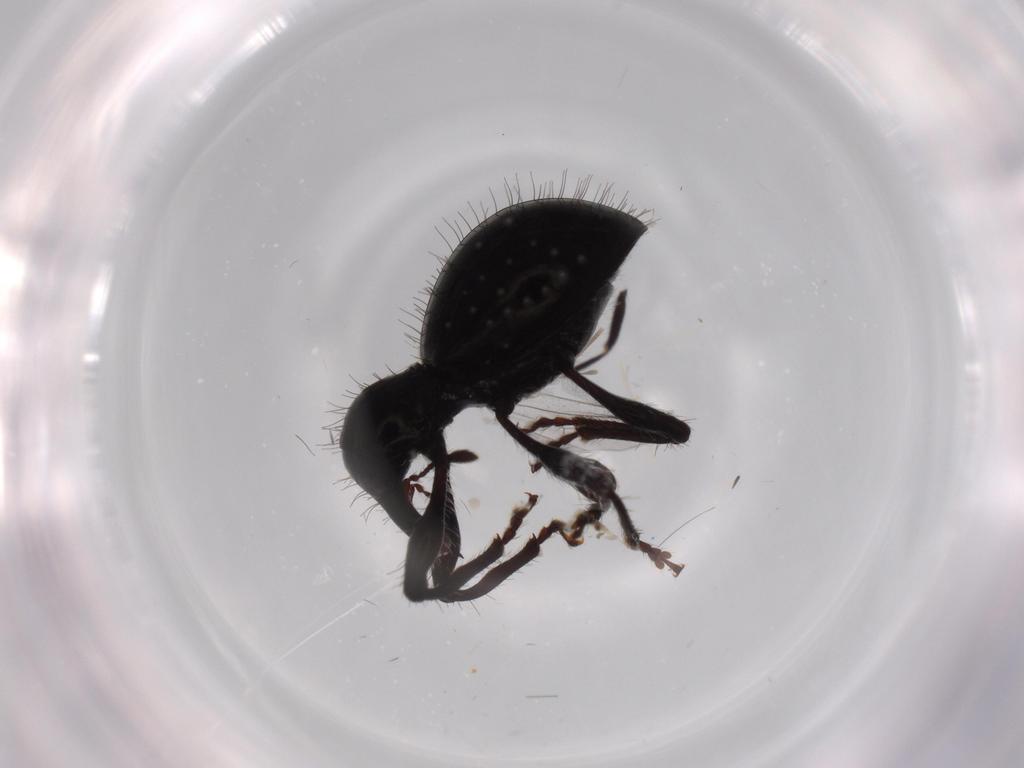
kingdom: Animalia
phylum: Arthropoda
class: Insecta
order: Coleoptera
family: Curculionidae
